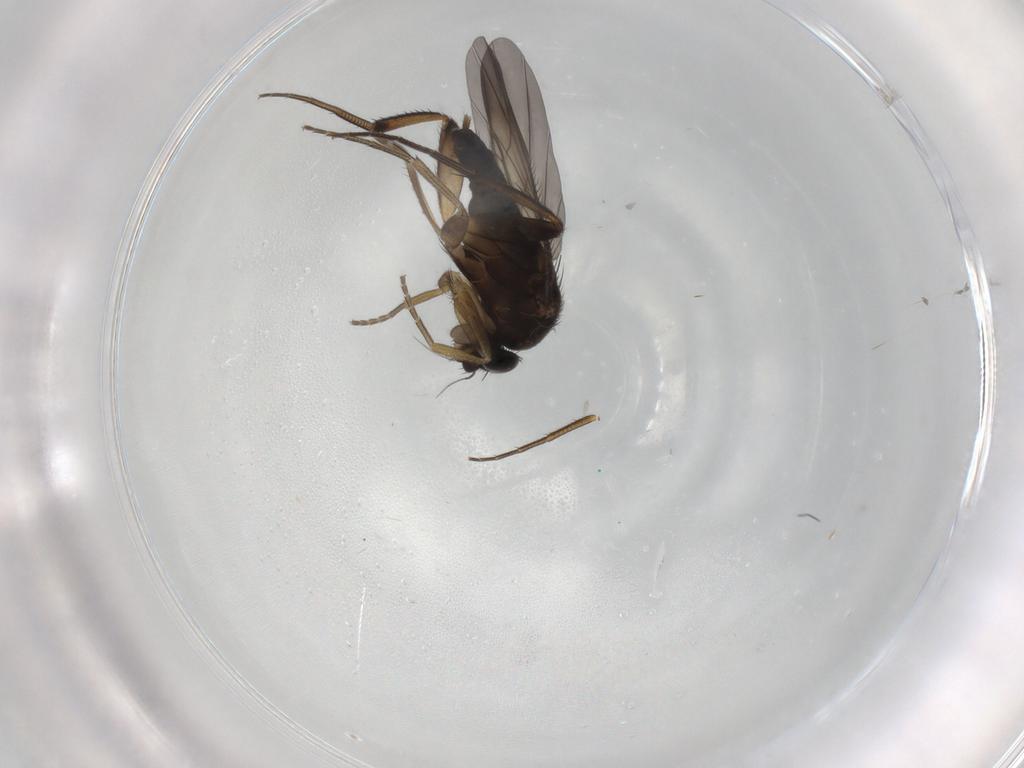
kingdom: Animalia
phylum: Arthropoda
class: Insecta
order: Diptera
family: Phoridae
